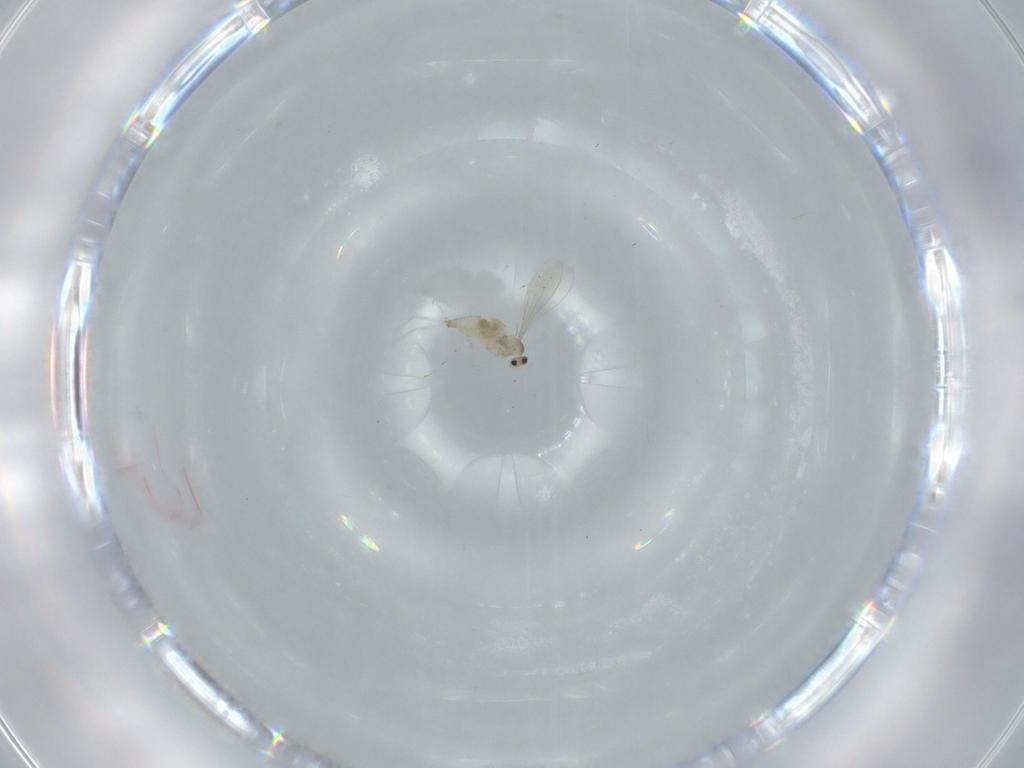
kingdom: Animalia
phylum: Arthropoda
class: Insecta
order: Diptera
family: Cecidomyiidae
